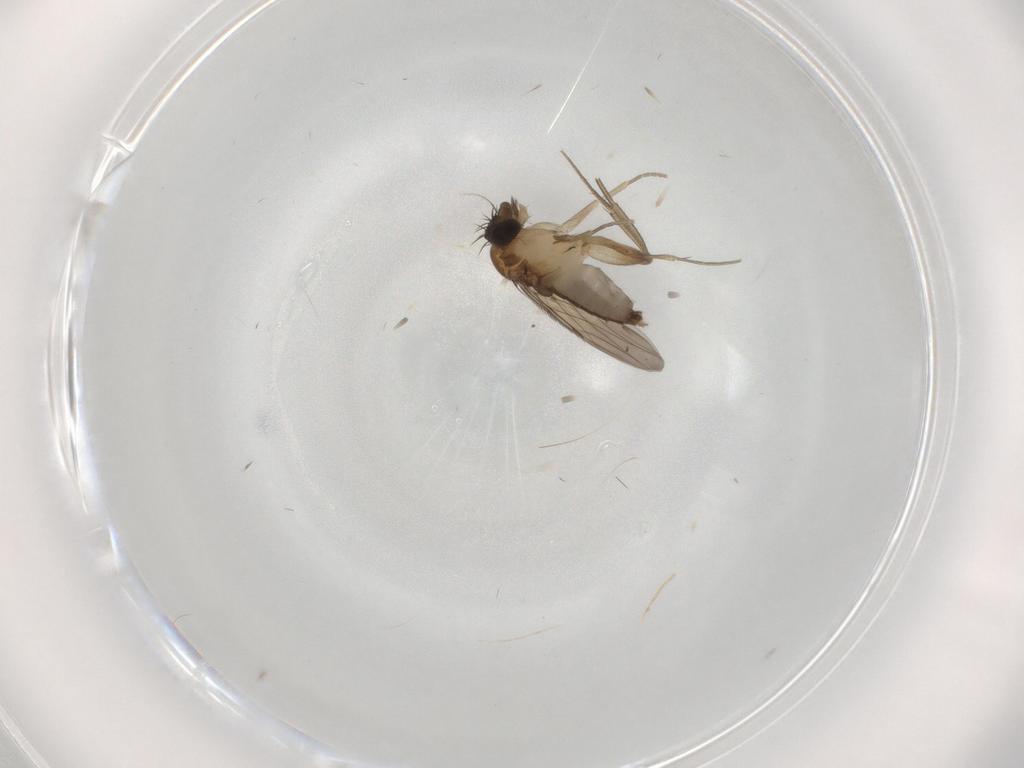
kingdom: Animalia
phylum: Arthropoda
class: Insecta
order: Diptera
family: Phoridae
